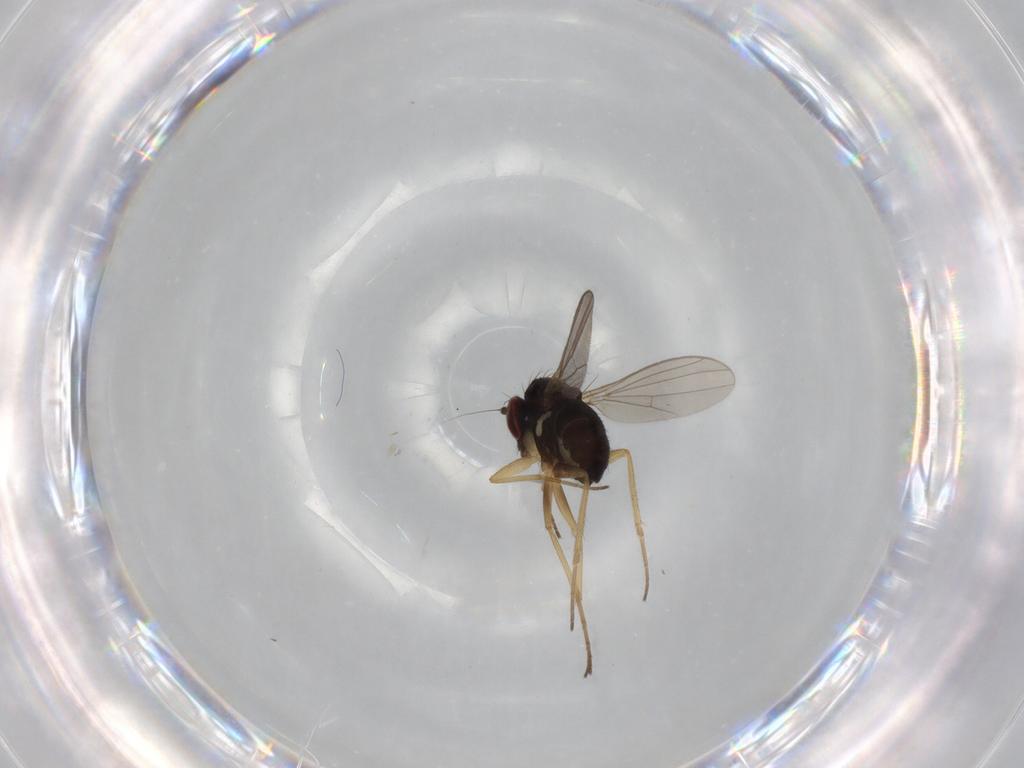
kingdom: Animalia
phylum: Arthropoda
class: Insecta
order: Diptera
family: Dolichopodidae
